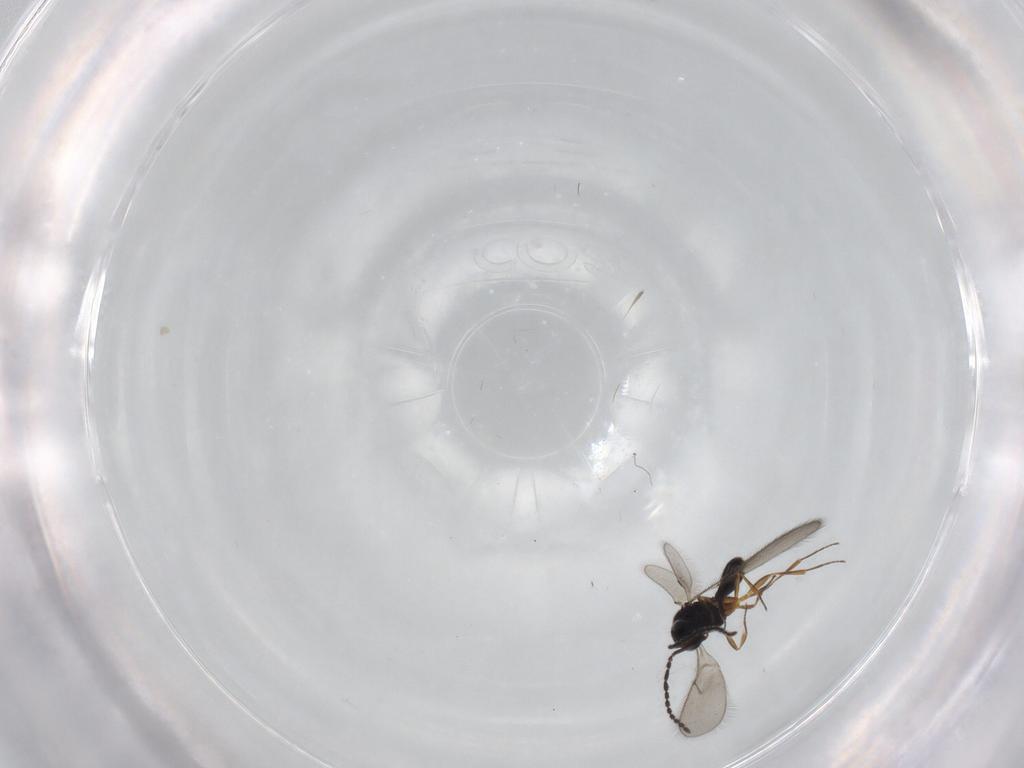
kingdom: Animalia
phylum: Arthropoda
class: Insecta
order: Hymenoptera
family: Scelionidae
